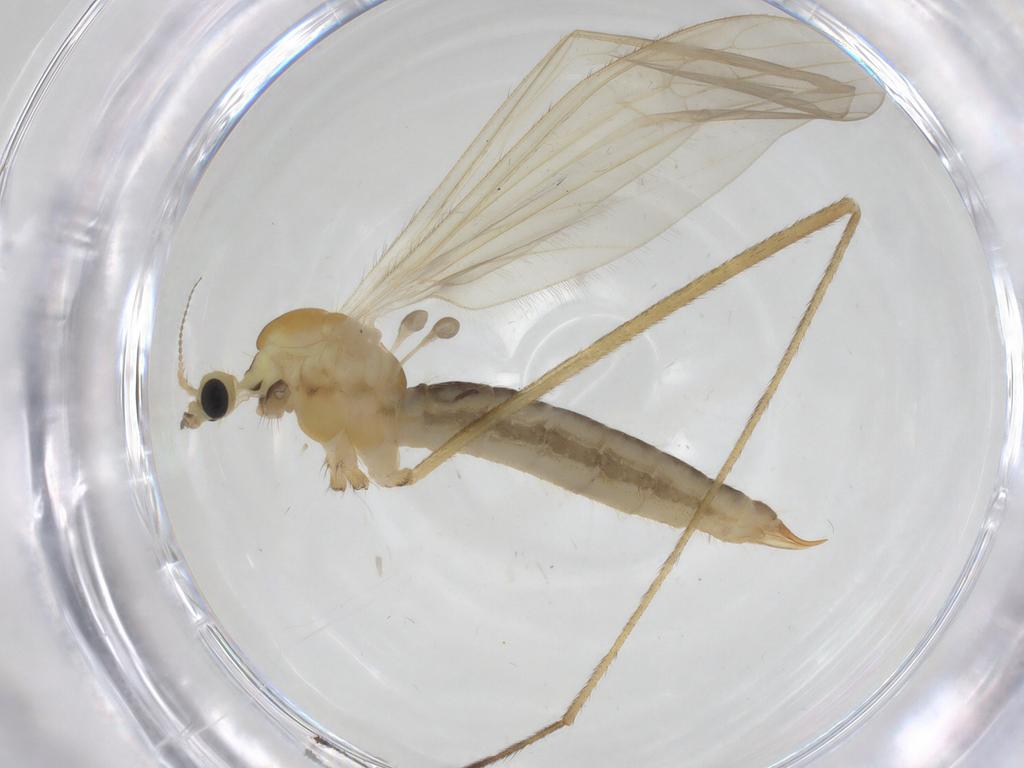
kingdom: Animalia
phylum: Arthropoda
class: Insecta
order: Diptera
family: Limoniidae
